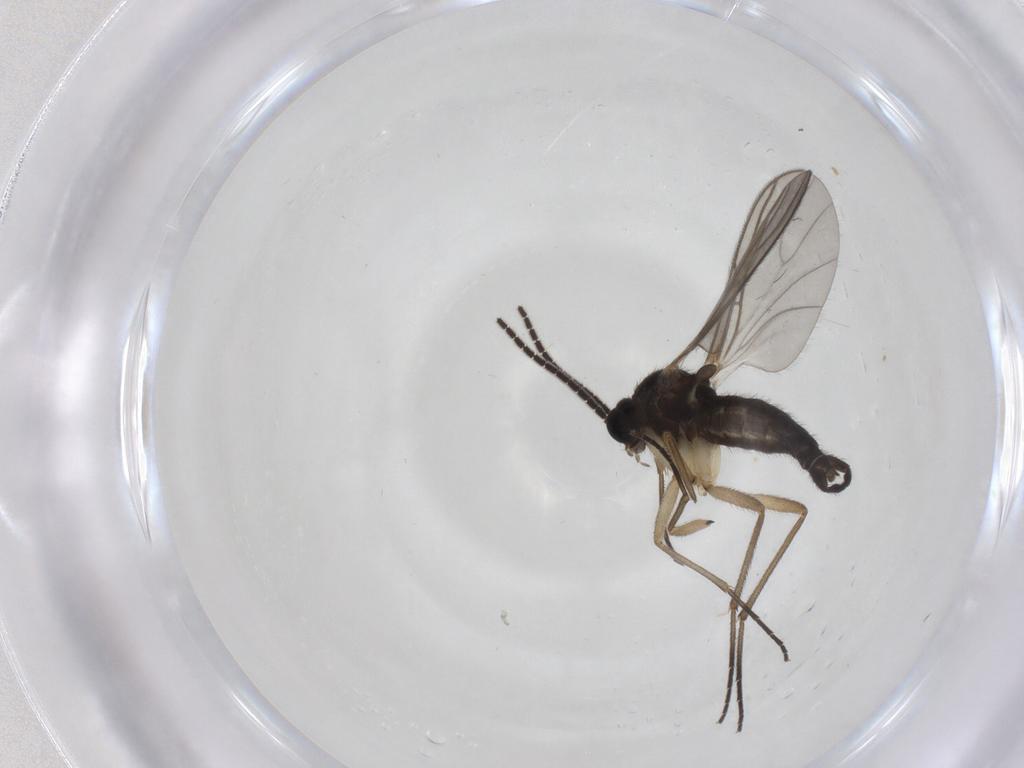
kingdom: Animalia
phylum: Arthropoda
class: Insecta
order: Diptera
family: Sciaridae
